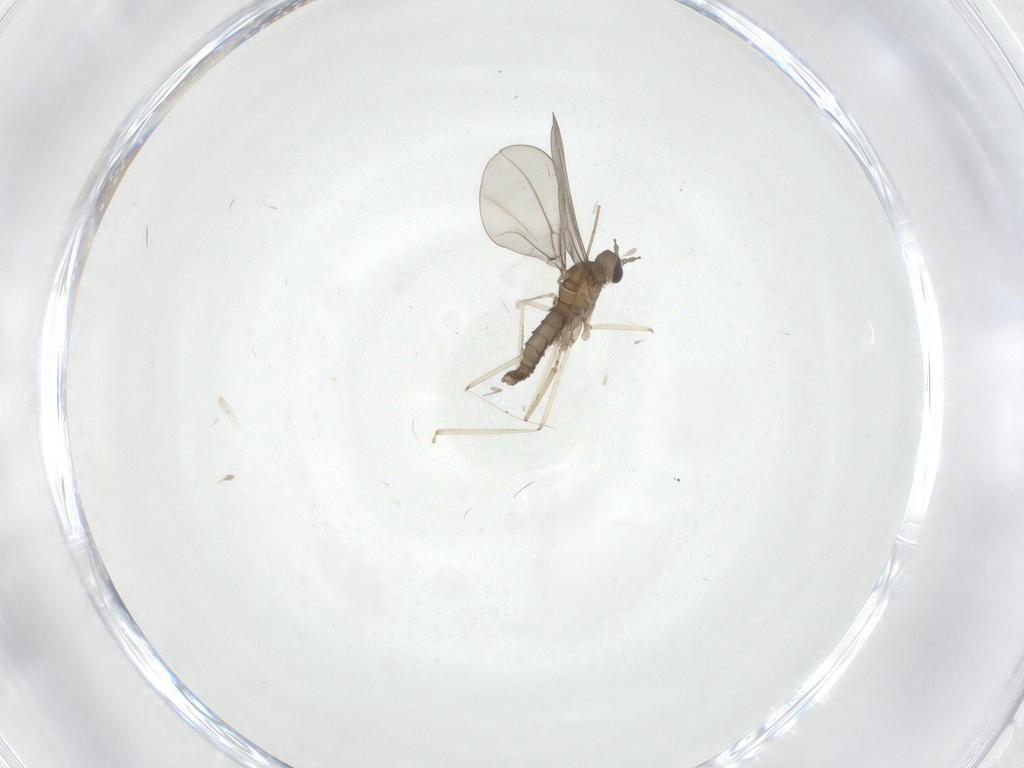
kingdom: Animalia
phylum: Arthropoda
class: Insecta
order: Diptera
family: Cecidomyiidae
